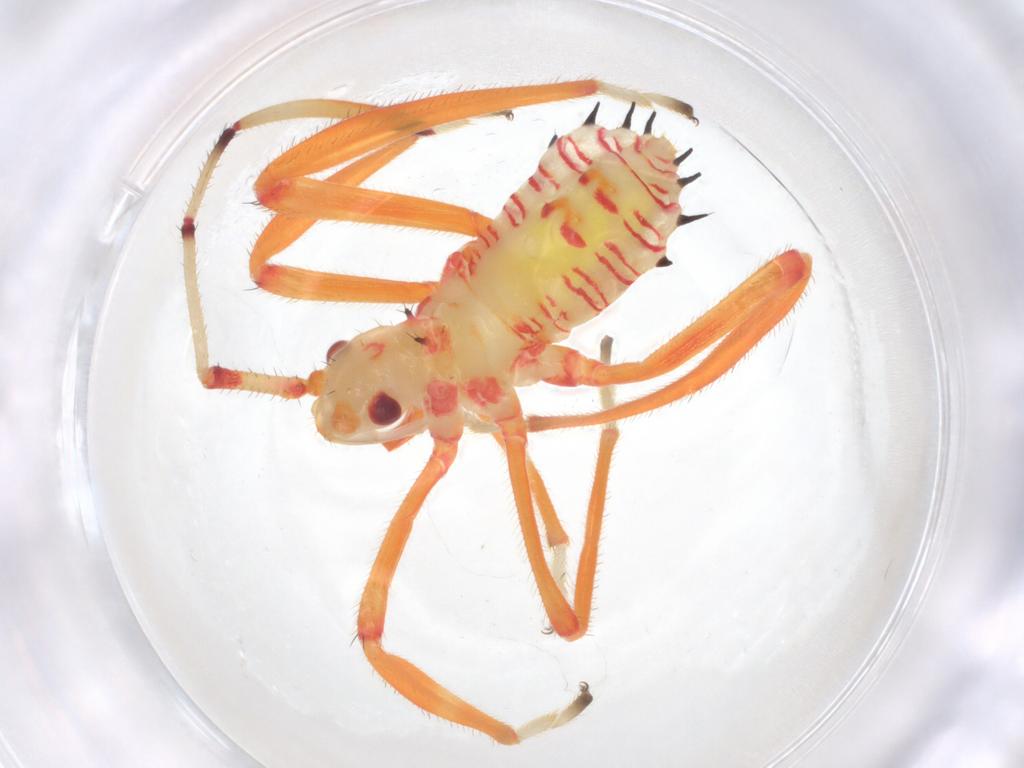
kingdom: Animalia
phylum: Arthropoda
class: Insecta
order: Hemiptera
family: Coreidae
